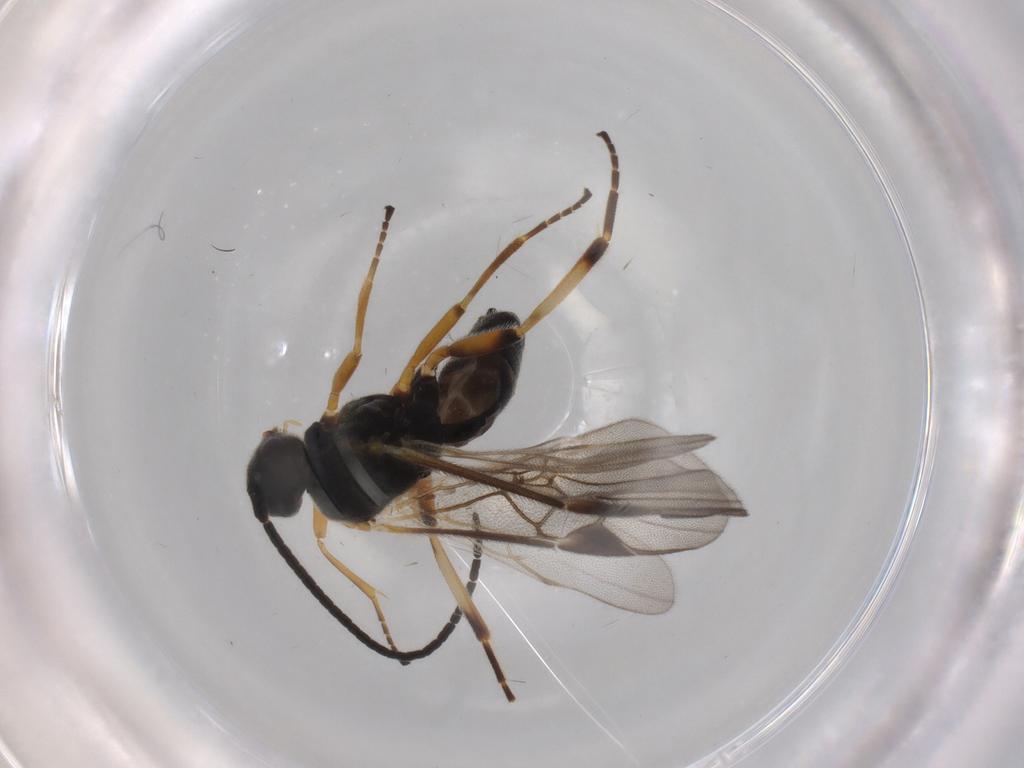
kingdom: Animalia
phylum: Arthropoda
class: Insecta
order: Hymenoptera
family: Braconidae
